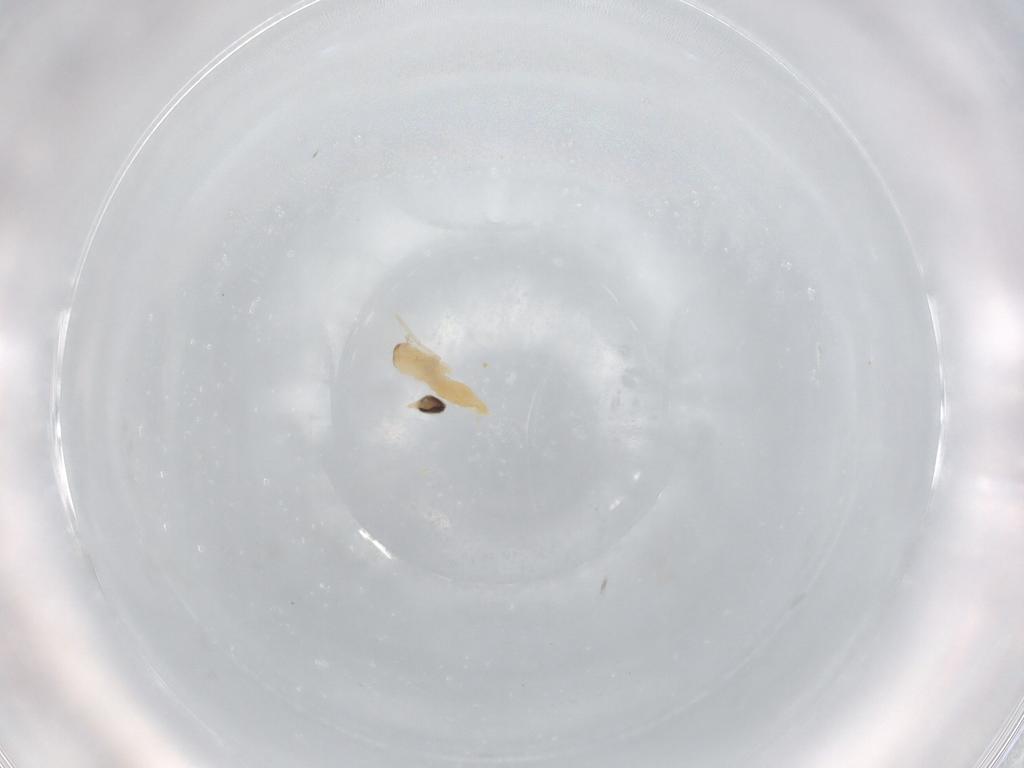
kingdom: Animalia
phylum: Arthropoda
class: Insecta
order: Diptera
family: Cecidomyiidae
